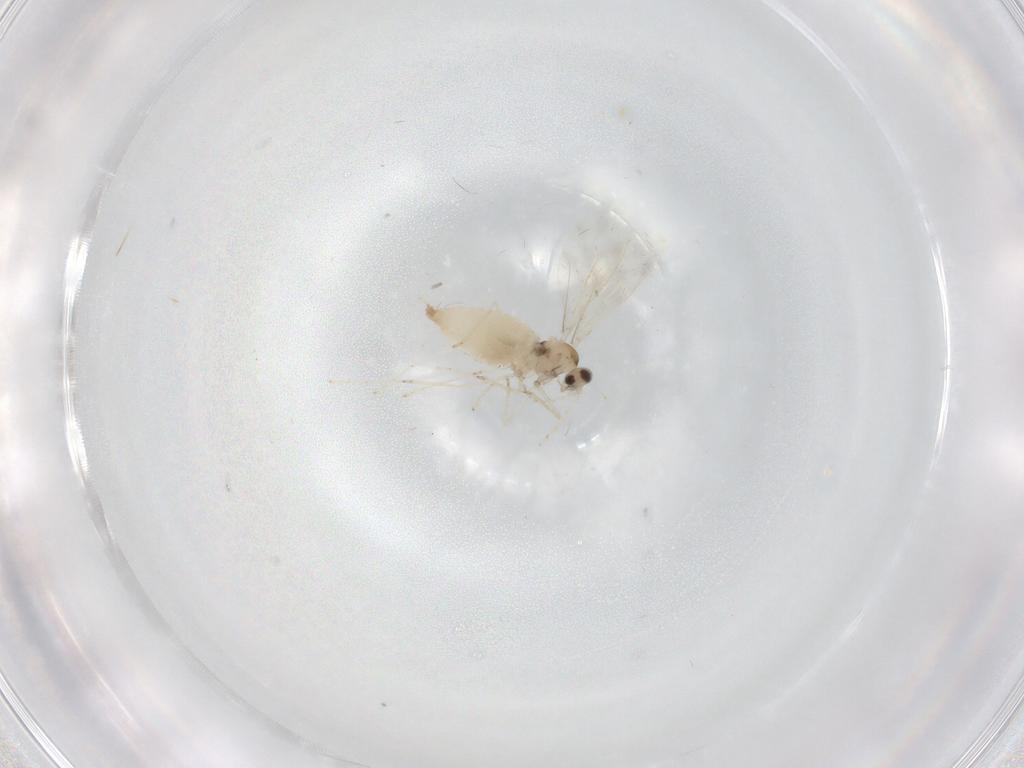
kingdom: Animalia
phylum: Arthropoda
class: Insecta
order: Diptera
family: Cecidomyiidae
